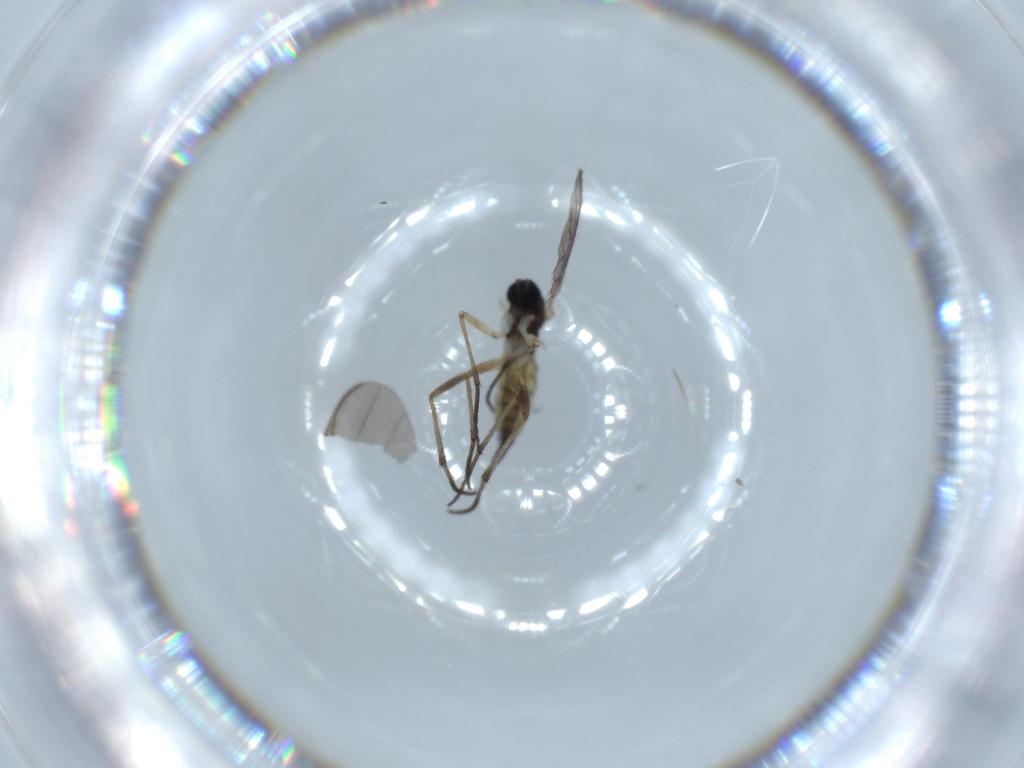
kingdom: Animalia
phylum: Arthropoda
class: Insecta
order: Diptera
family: Sciaridae
